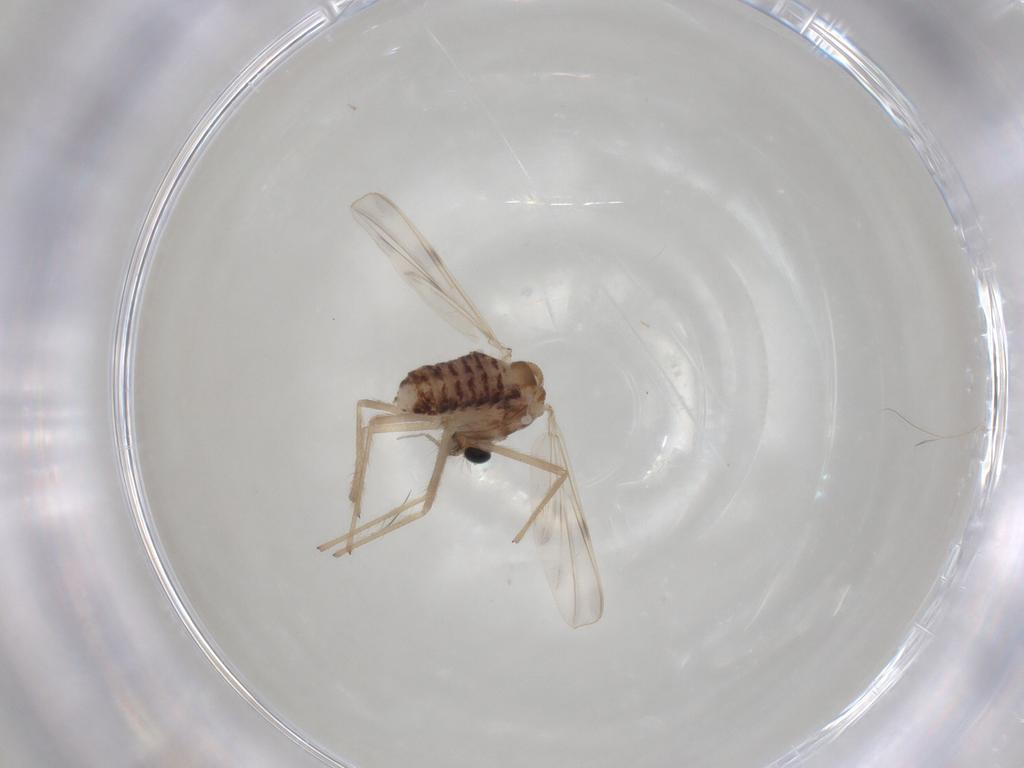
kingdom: Animalia
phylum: Arthropoda
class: Insecta
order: Diptera
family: Chironomidae
